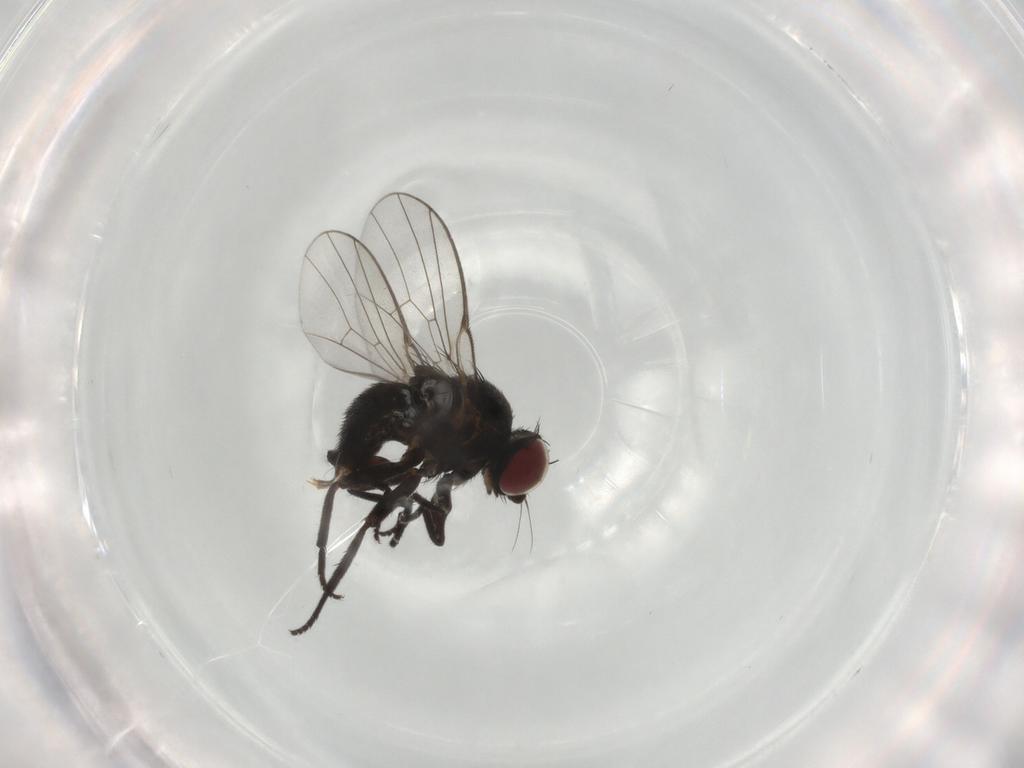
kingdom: Animalia
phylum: Arthropoda
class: Insecta
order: Diptera
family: Agromyzidae
